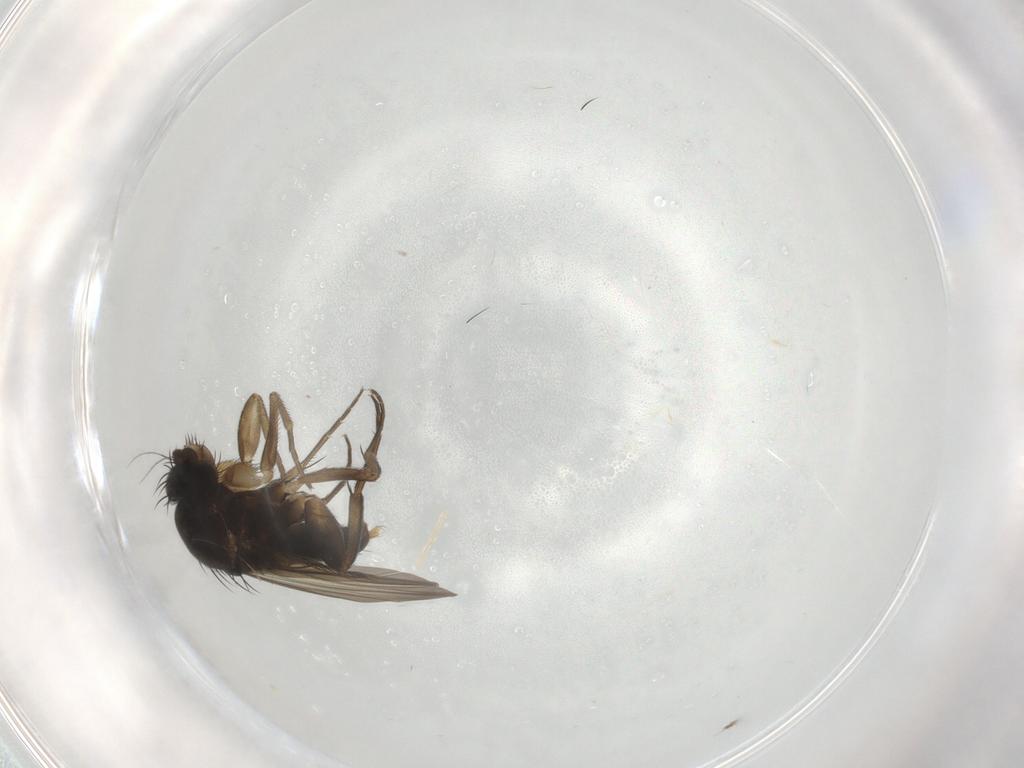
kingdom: Animalia
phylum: Arthropoda
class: Insecta
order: Diptera
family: Phoridae
